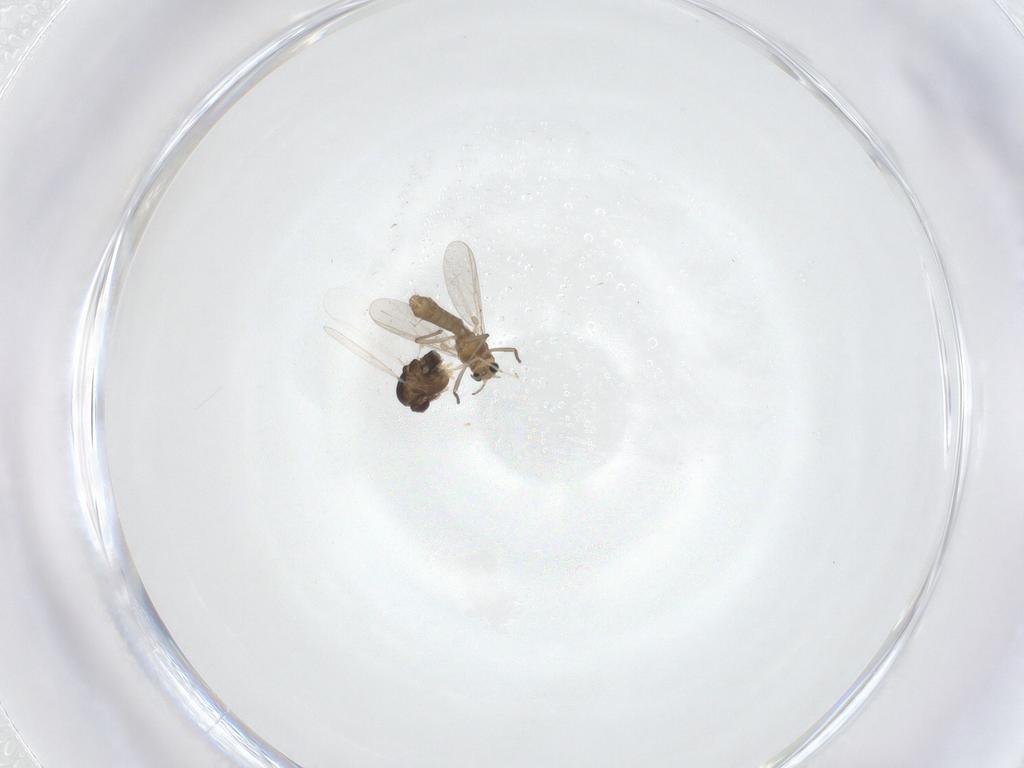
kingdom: Animalia
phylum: Arthropoda
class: Insecta
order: Diptera
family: Chironomidae
